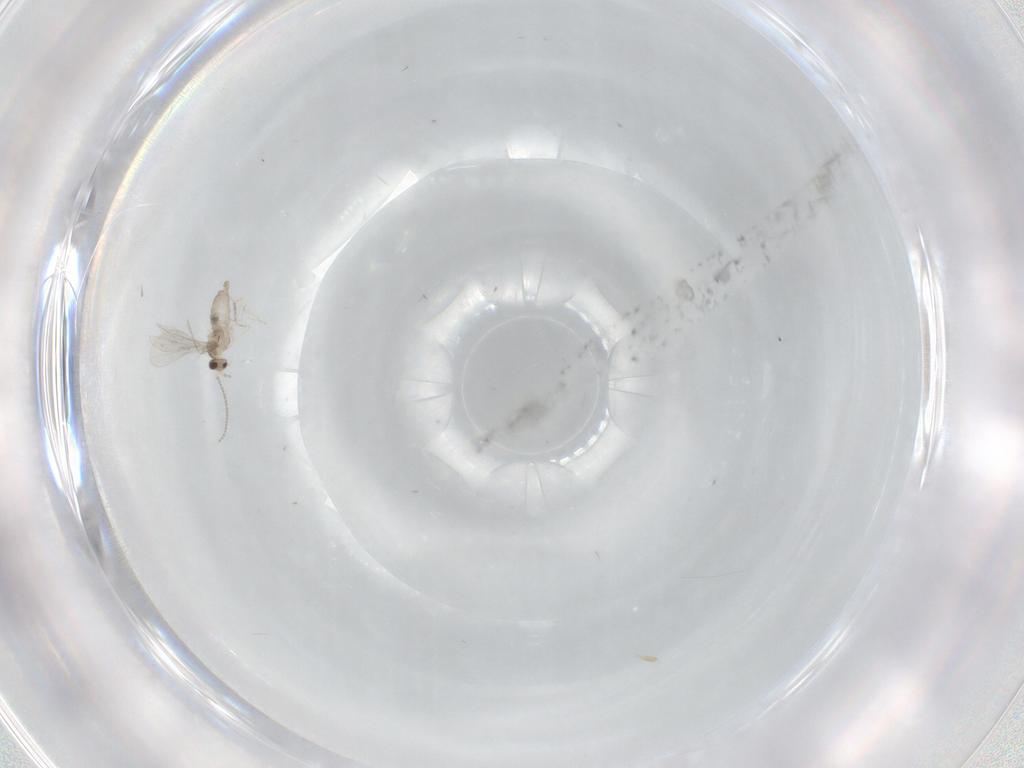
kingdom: Animalia
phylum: Arthropoda
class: Insecta
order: Diptera
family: Cecidomyiidae
